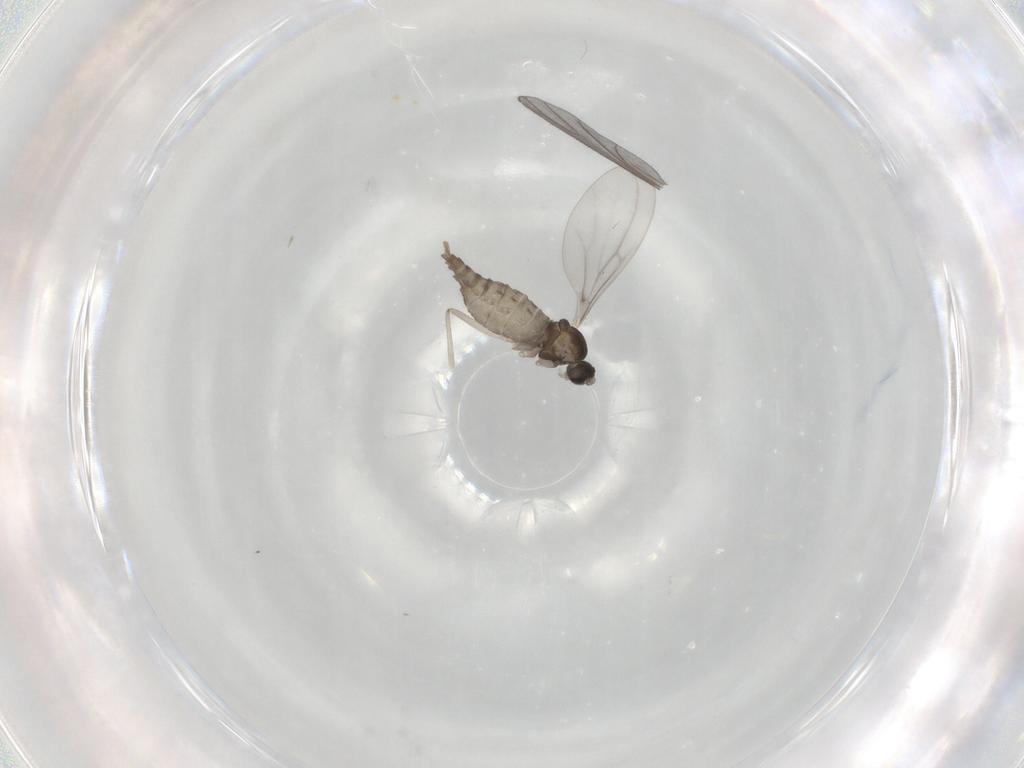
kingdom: Animalia
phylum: Arthropoda
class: Insecta
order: Diptera
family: Cecidomyiidae
